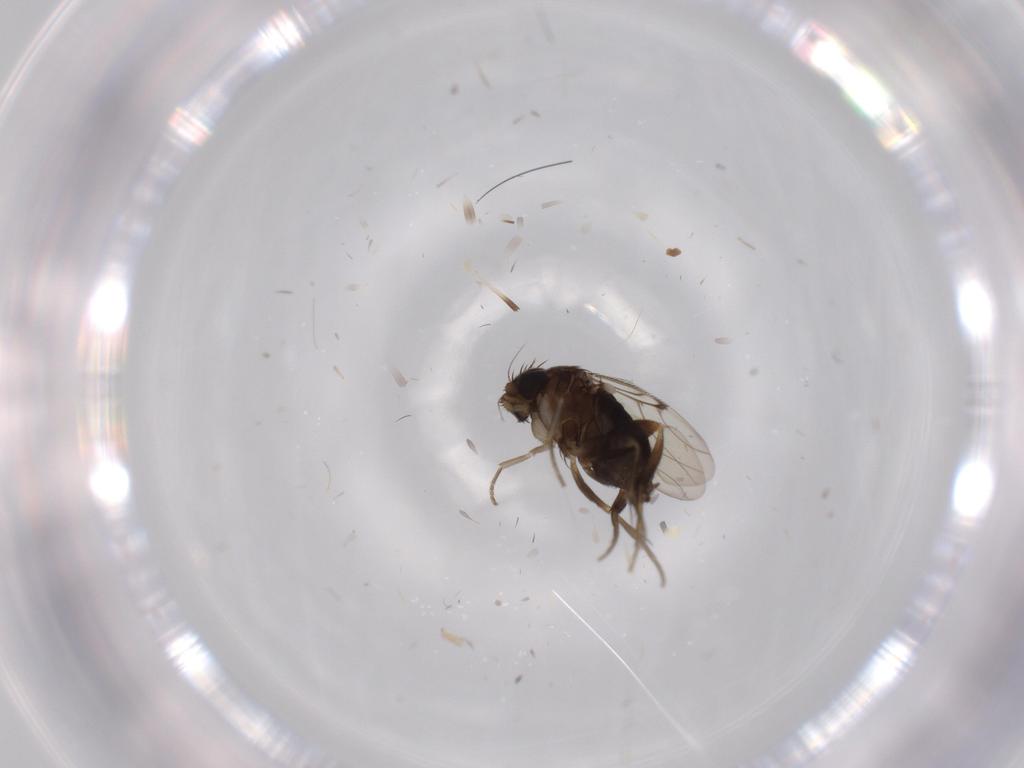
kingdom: Animalia
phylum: Arthropoda
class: Insecta
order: Diptera
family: Phoridae
